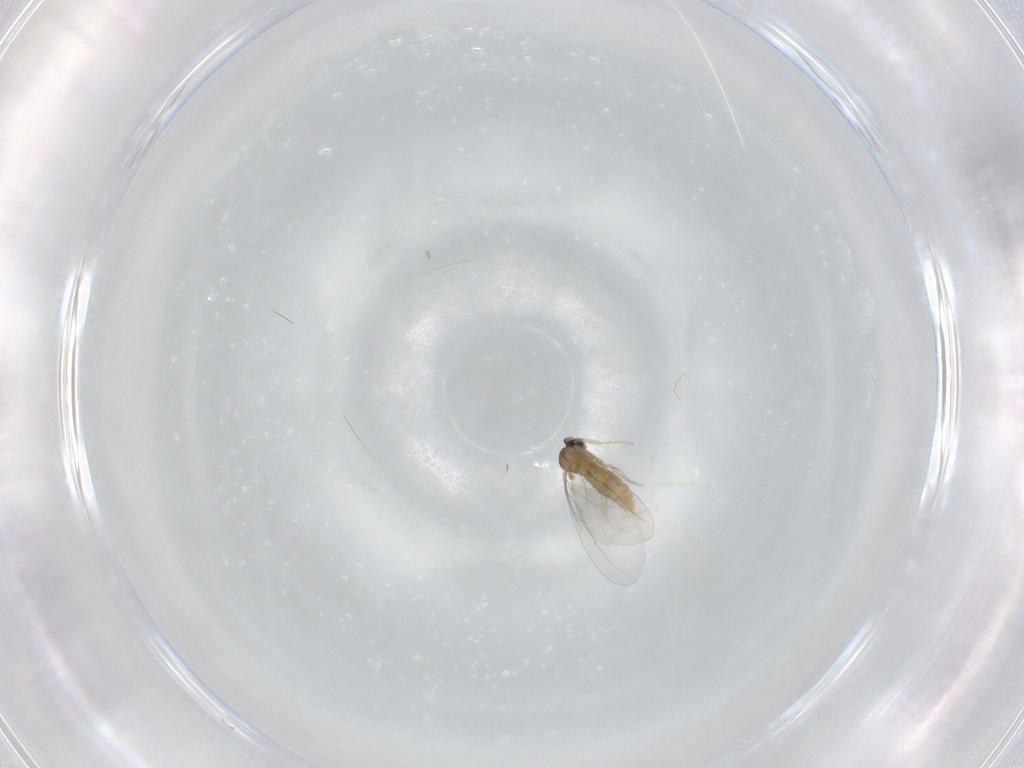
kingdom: Animalia
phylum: Arthropoda
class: Insecta
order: Diptera
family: Cecidomyiidae
